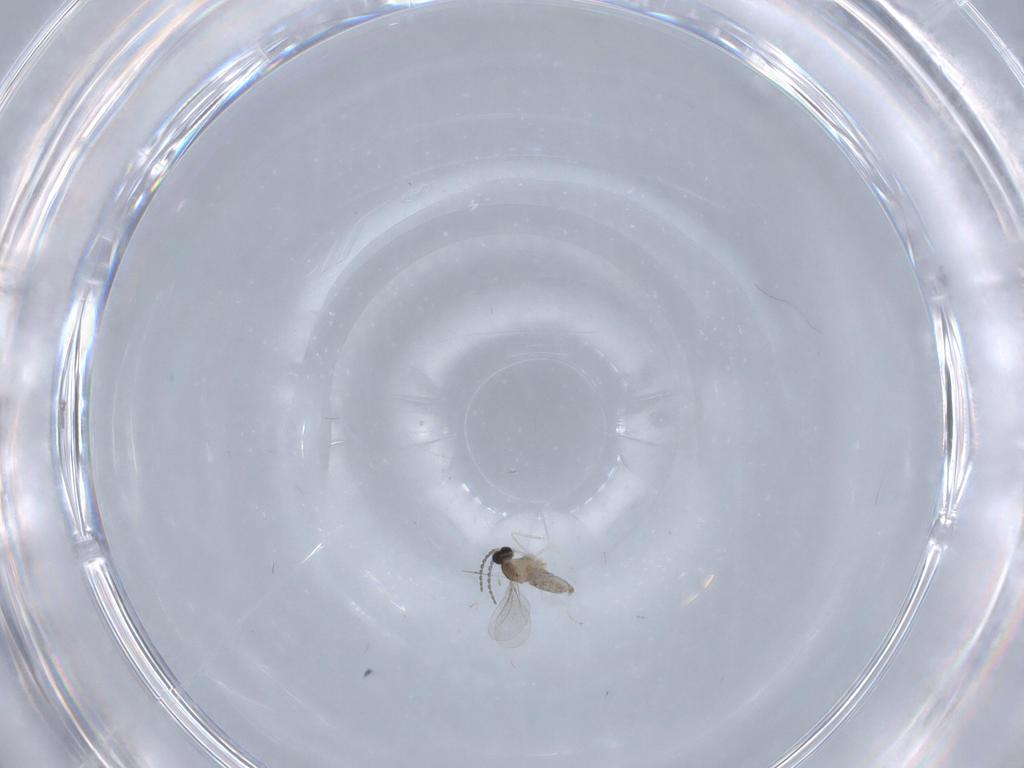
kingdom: Animalia
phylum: Arthropoda
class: Insecta
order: Diptera
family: Cecidomyiidae
